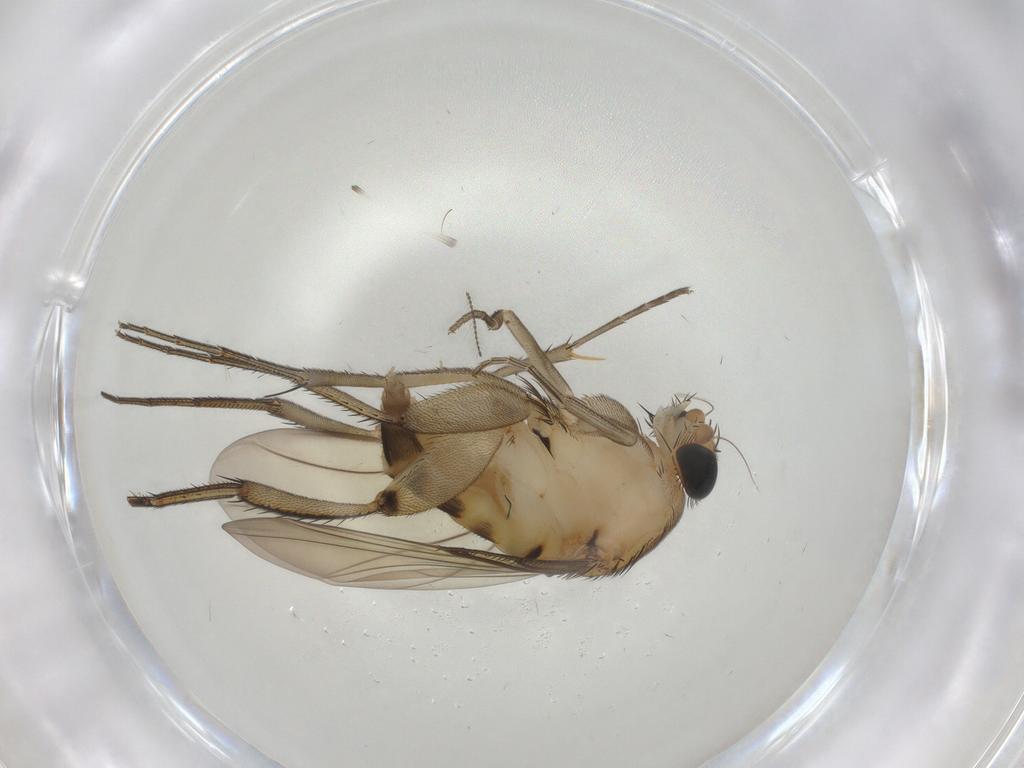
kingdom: Animalia
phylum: Arthropoda
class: Insecta
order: Diptera
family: Phoridae
